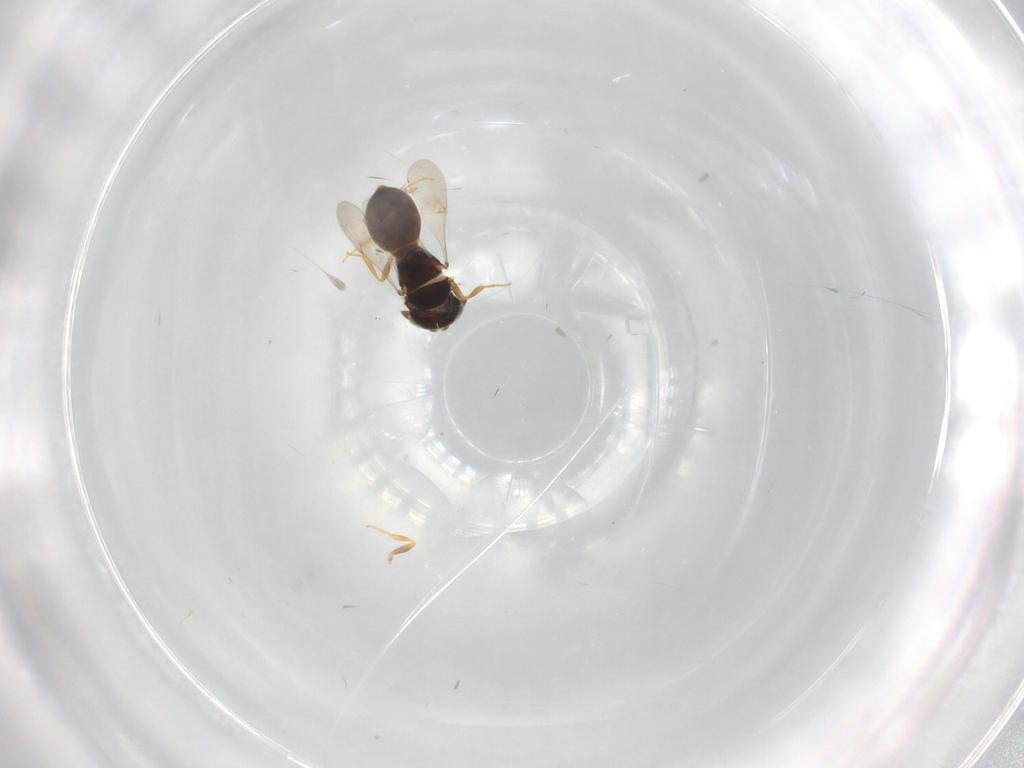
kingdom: Animalia
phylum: Arthropoda
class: Insecta
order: Hymenoptera
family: Scelionidae
